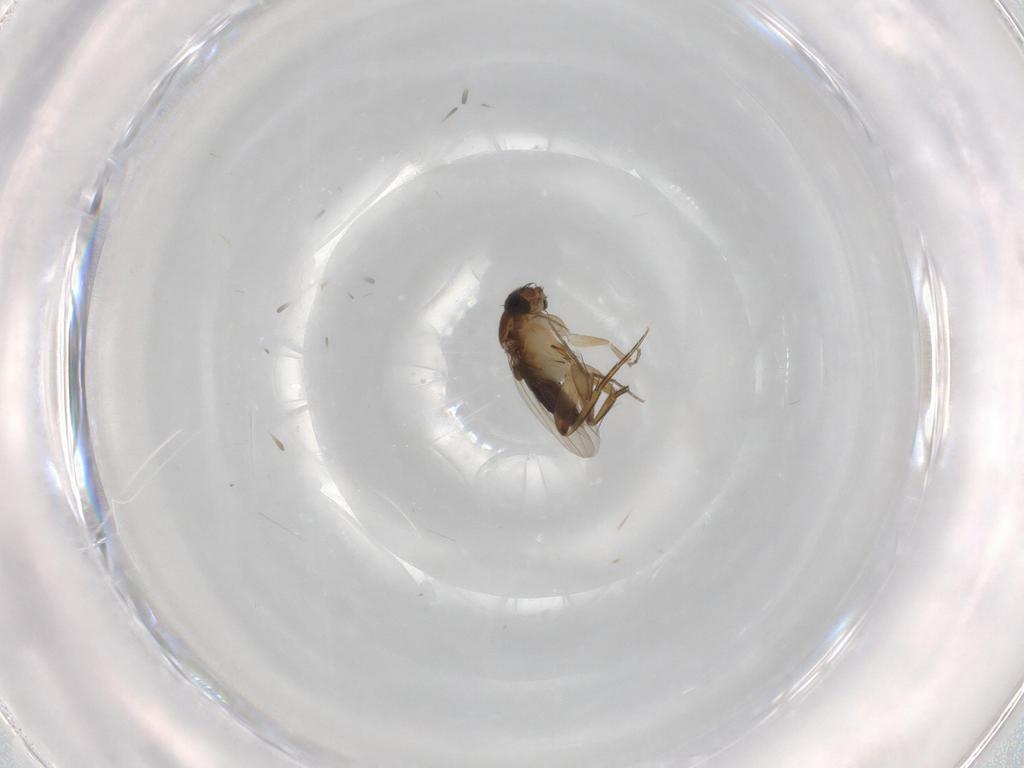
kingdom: Animalia
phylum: Arthropoda
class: Insecta
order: Diptera
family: Phoridae
